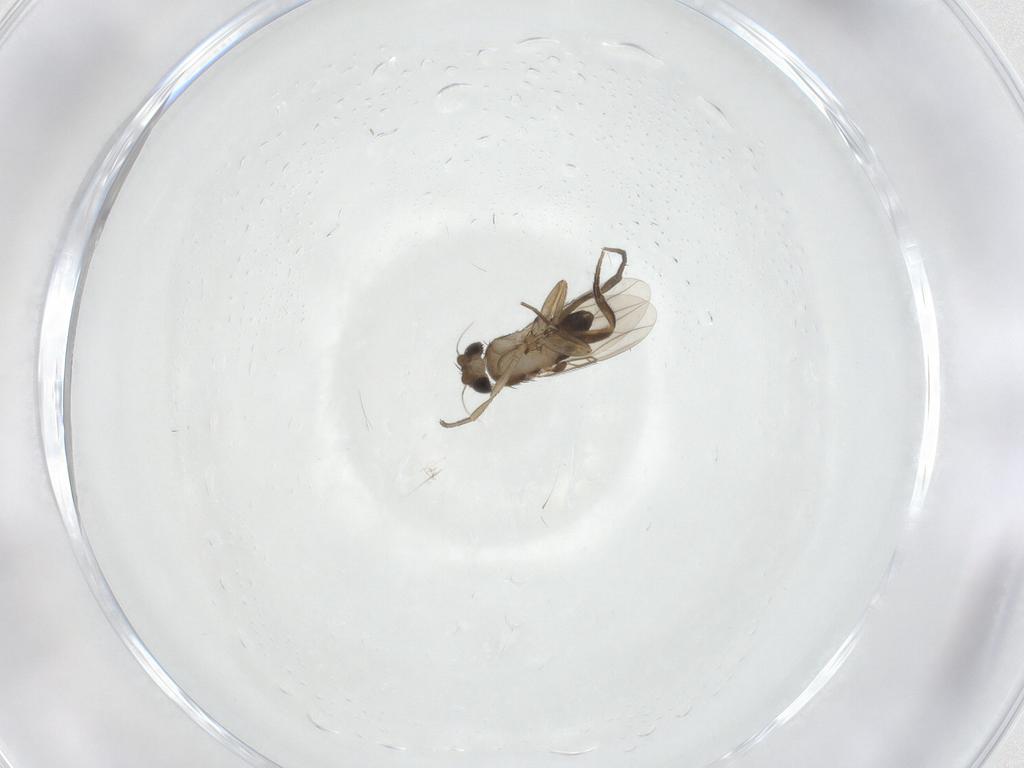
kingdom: Animalia
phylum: Arthropoda
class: Insecta
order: Diptera
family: Phoridae
